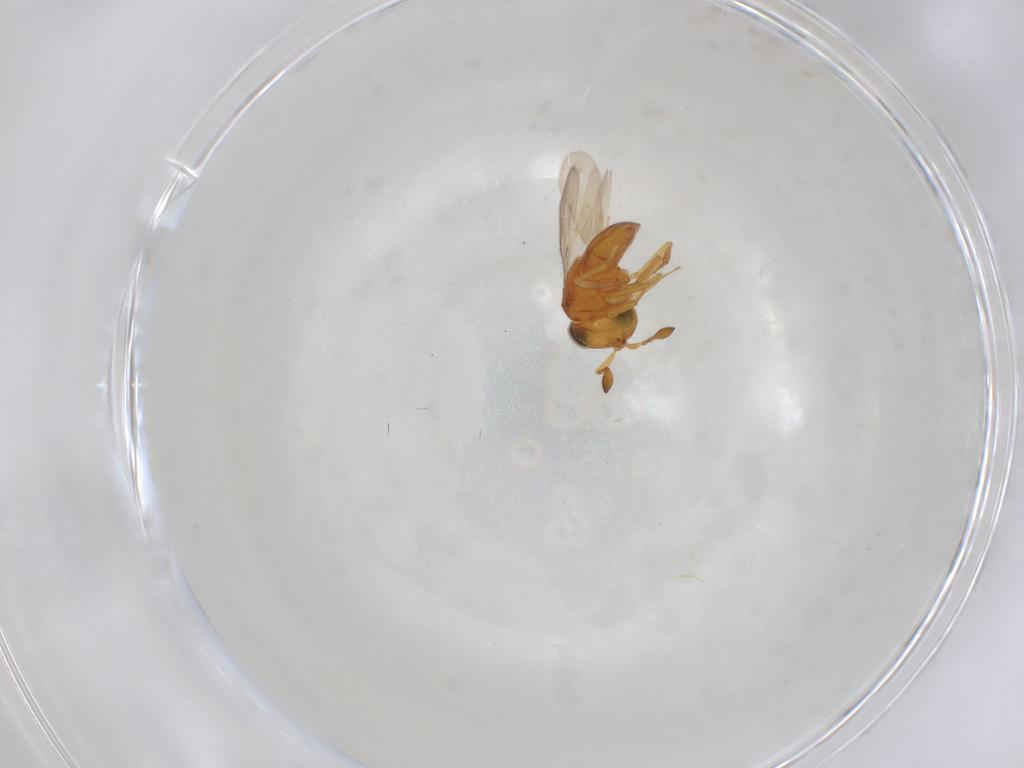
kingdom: Animalia
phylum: Arthropoda
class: Insecta
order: Hymenoptera
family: Scelionidae
